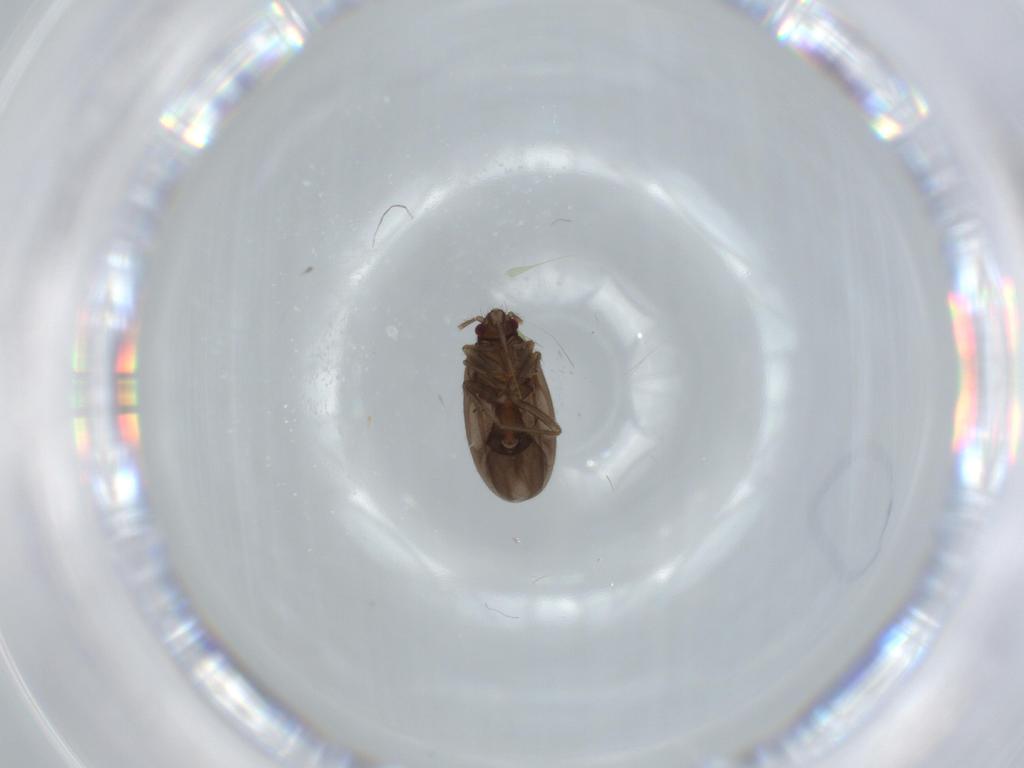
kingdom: Animalia
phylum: Arthropoda
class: Insecta
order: Hemiptera
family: Ceratocombidae
